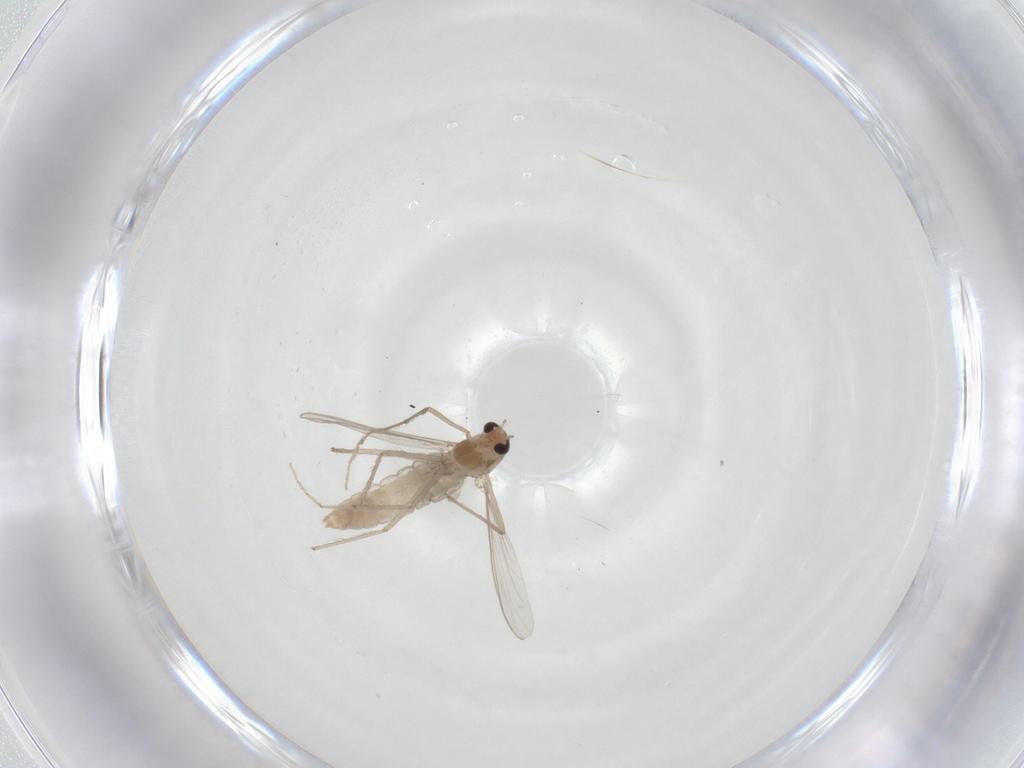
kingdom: Animalia
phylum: Arthropoda
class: Insecta
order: Diptera
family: Chironomidae
